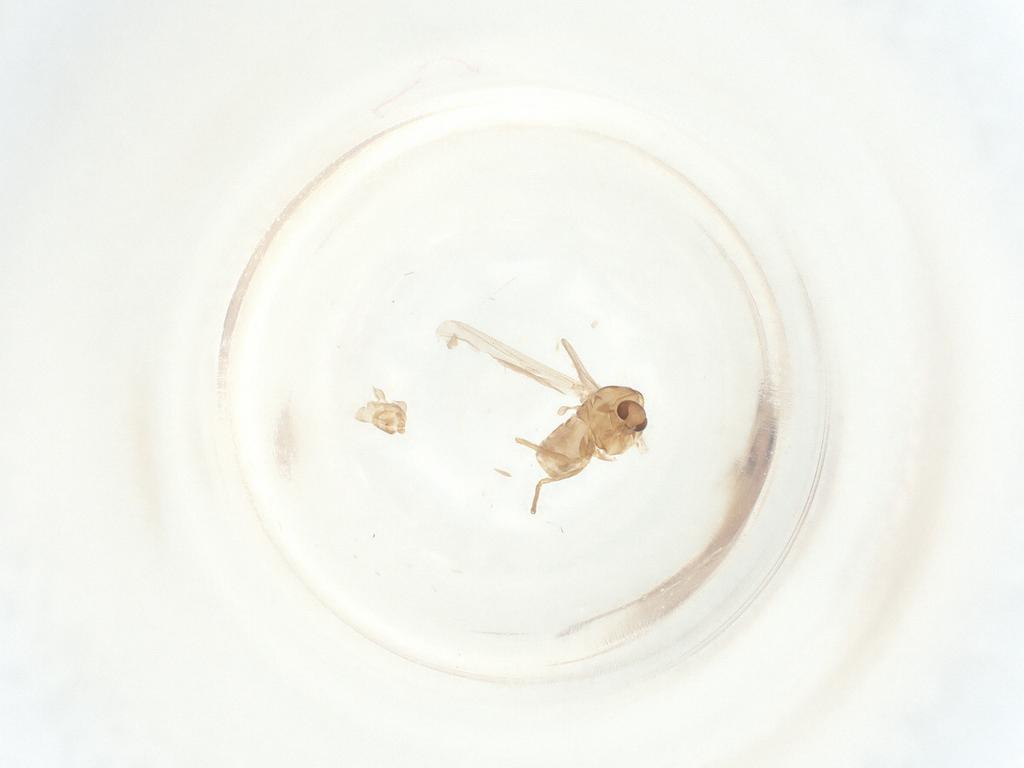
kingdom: Animalia
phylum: Arthropoda
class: Insecta
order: Diptera
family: Chironomidae
